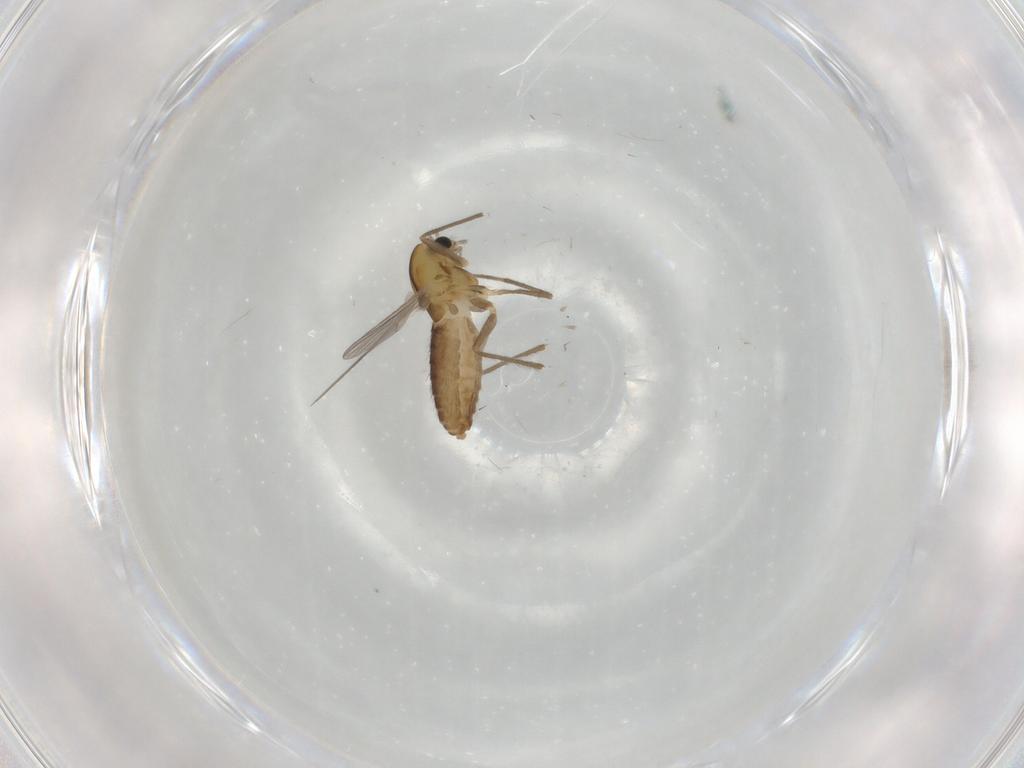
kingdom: Animalia
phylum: Arthropoda
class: Insecta
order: Diptera
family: Chironomidae
